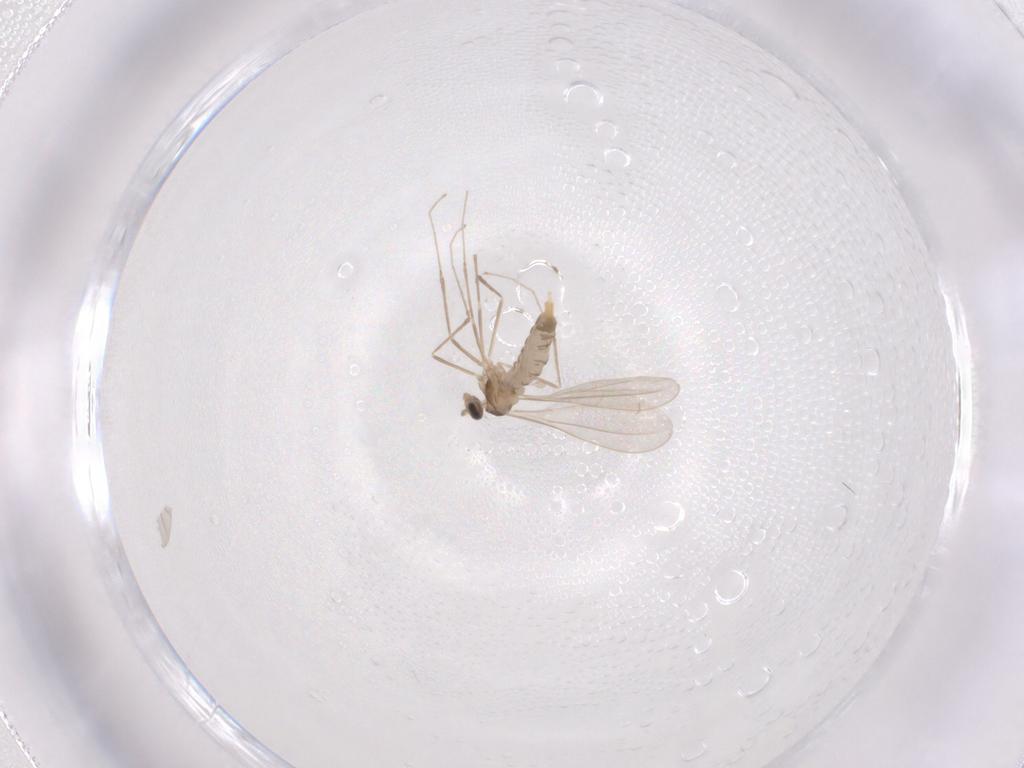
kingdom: Animalia
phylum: Arthropoda
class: Insecta
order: Diptera
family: Cecidomyiidae
